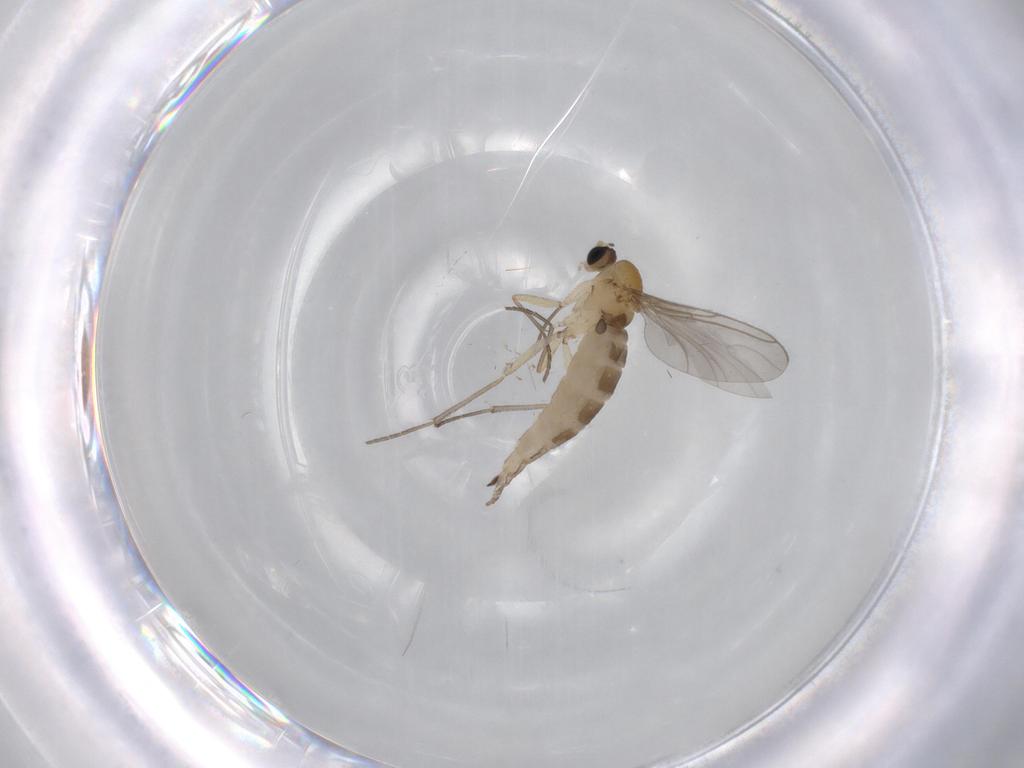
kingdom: Animalia
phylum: Arthropoda
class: Insecta
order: Diptera
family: Sciaridae
